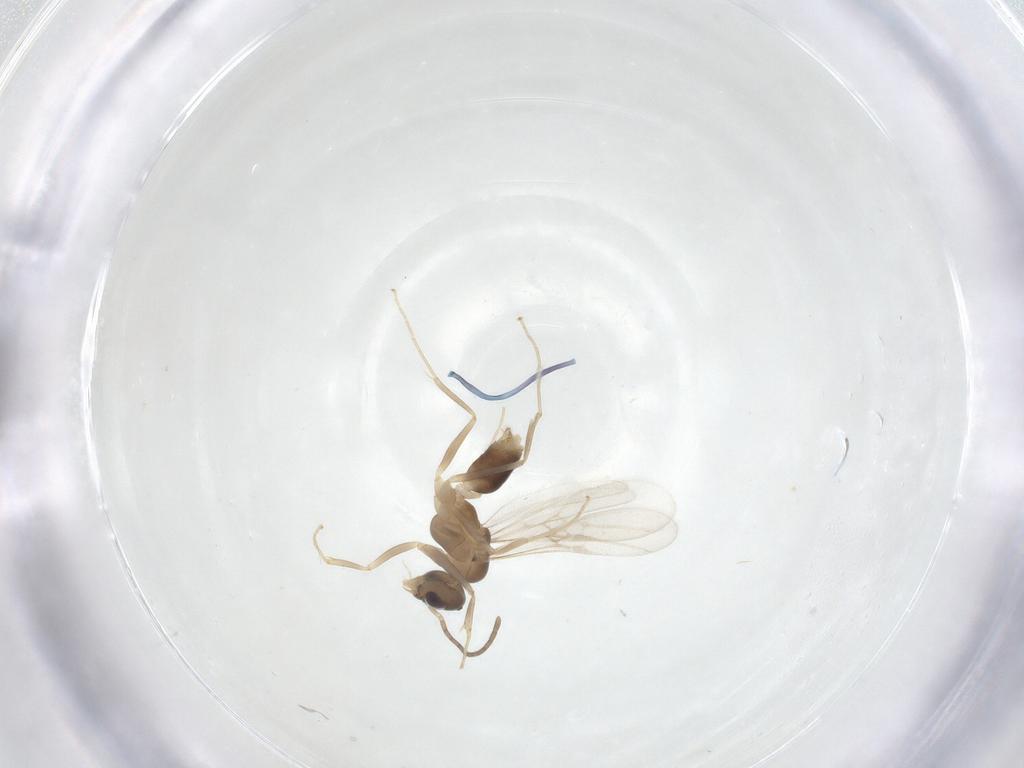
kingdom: Animalia
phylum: Arthropoda
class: Insecta
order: Hymenoptera
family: Formicidae
